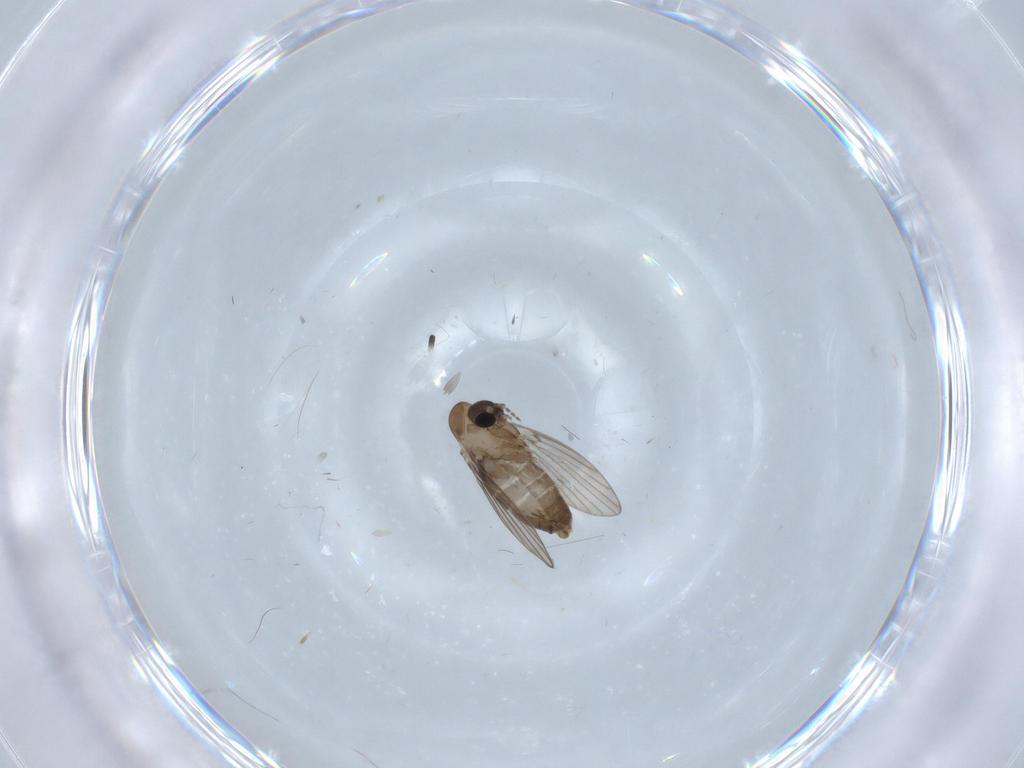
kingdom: Animalia
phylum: Arthropoda
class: Insecta
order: Diptera
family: Psychodidae
